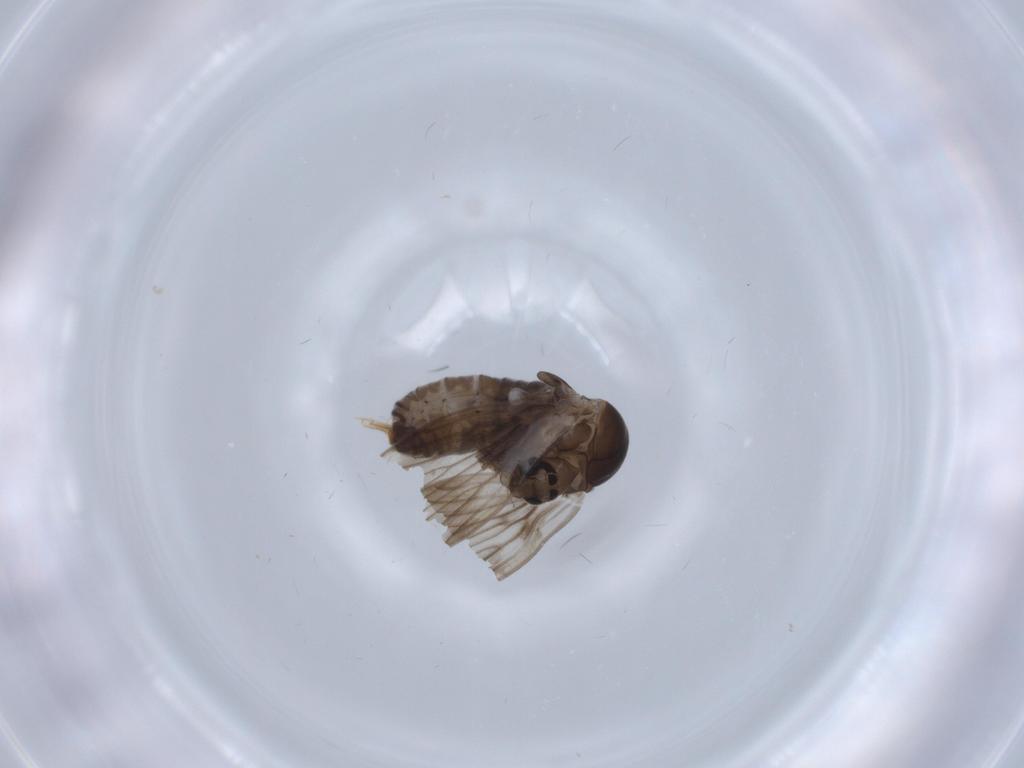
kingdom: Animalia
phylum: Arthropoda
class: Insecta
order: Diptera
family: Psychodidae
